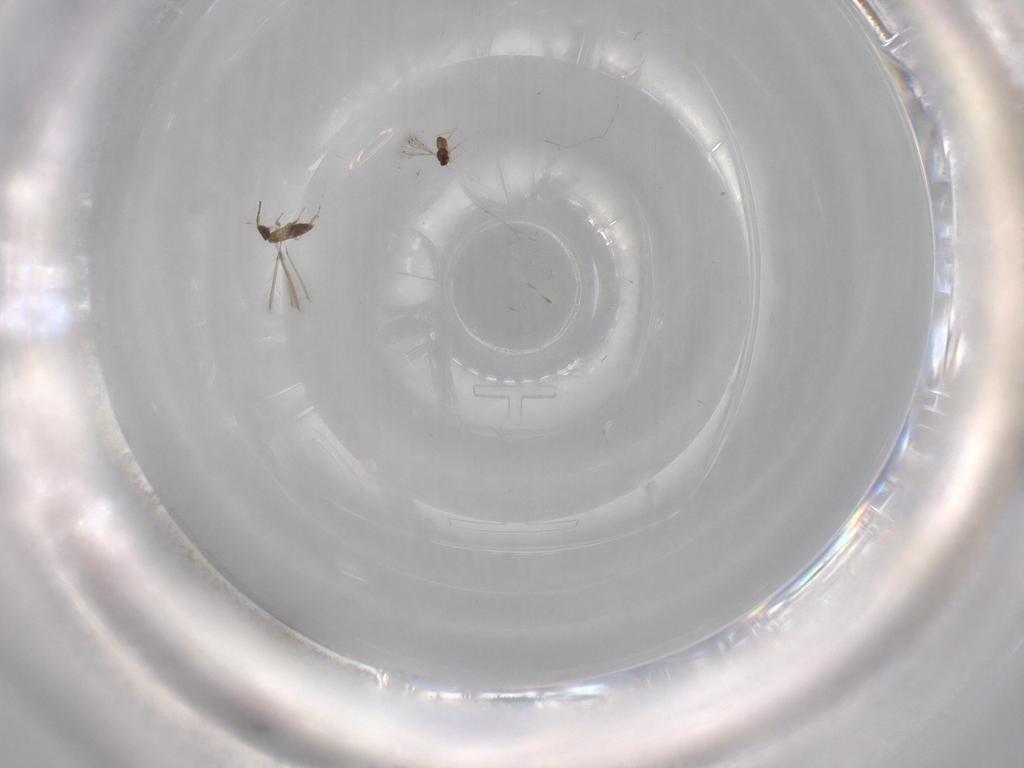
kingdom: Animalia
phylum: Arthropoda
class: Chilopoda
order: Scutigeromorpha
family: Scutigeridae
